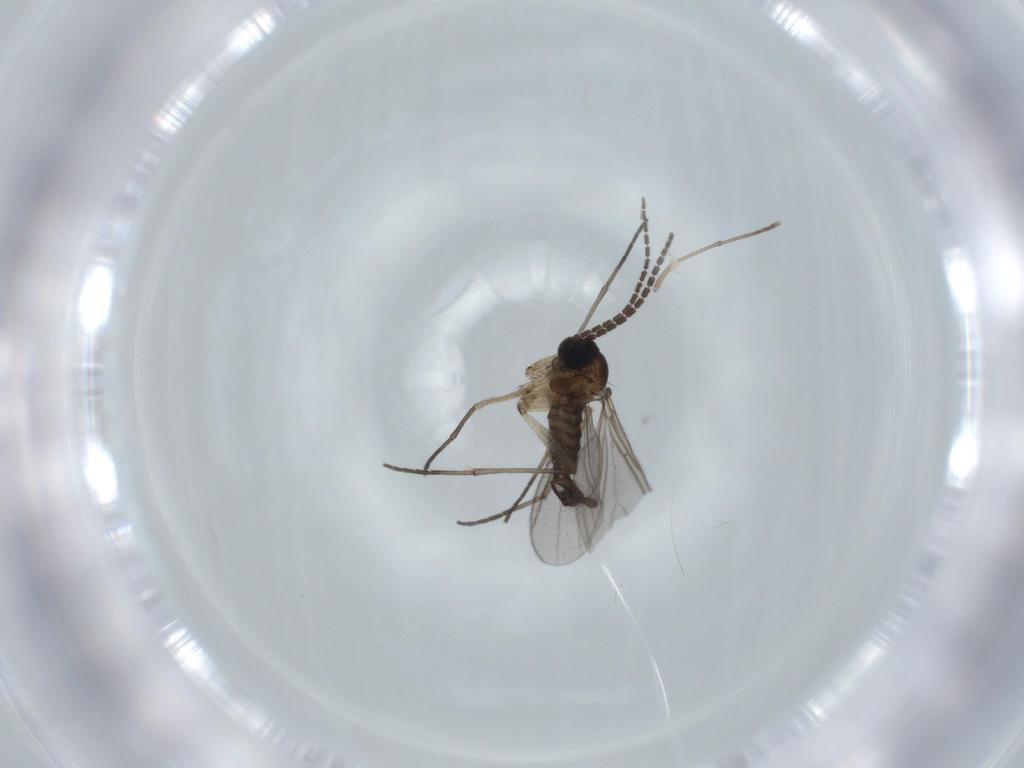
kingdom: Animalia
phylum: Arthropoda
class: Insecta
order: Diptera
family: Sciaridae
